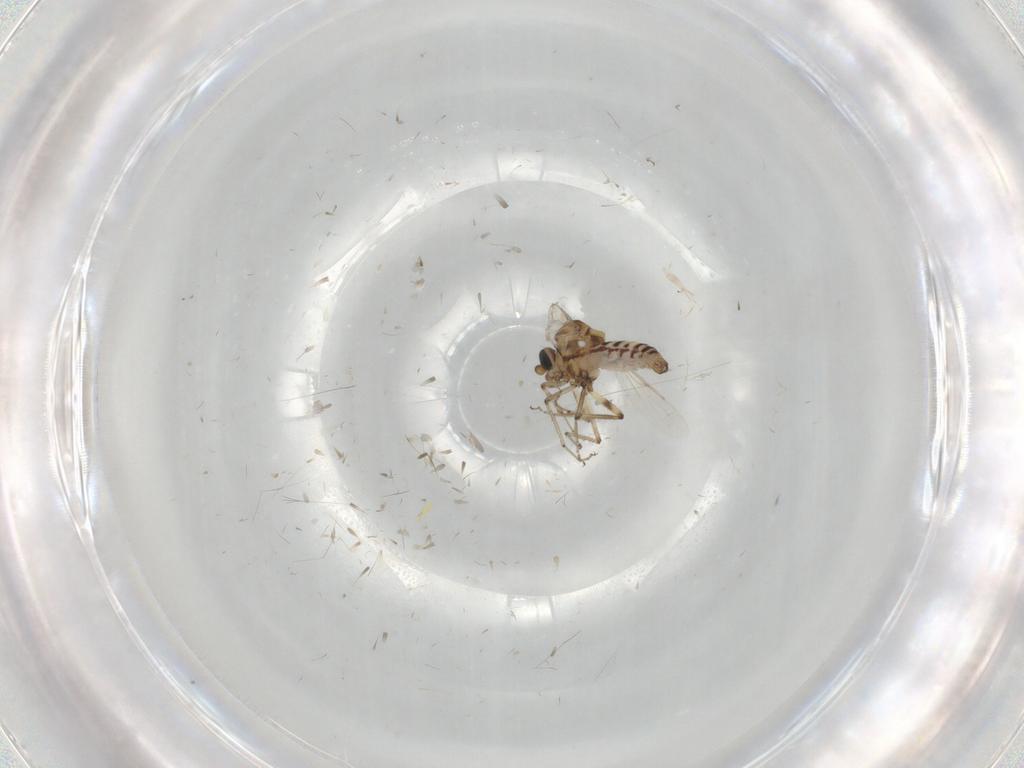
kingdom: Animalia
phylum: Arthropoda
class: Insecta
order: Diptera
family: Ceratopogonidae
